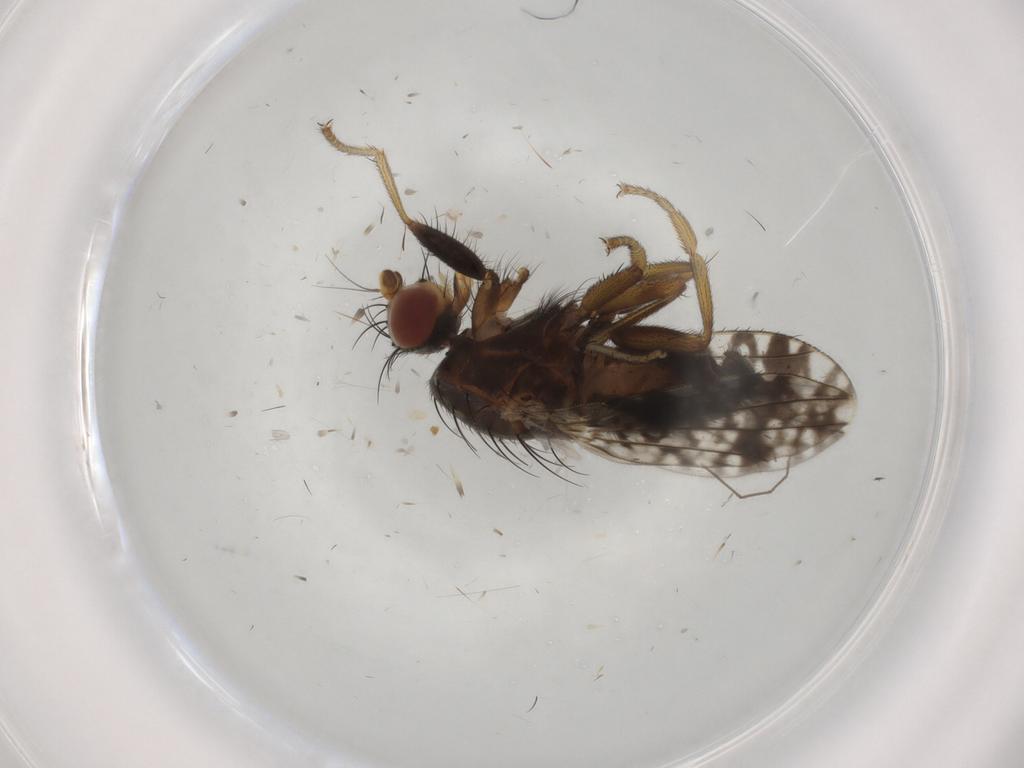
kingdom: Animalia
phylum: Arthropoda
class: Insecta
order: Diptera
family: Tephritidae
